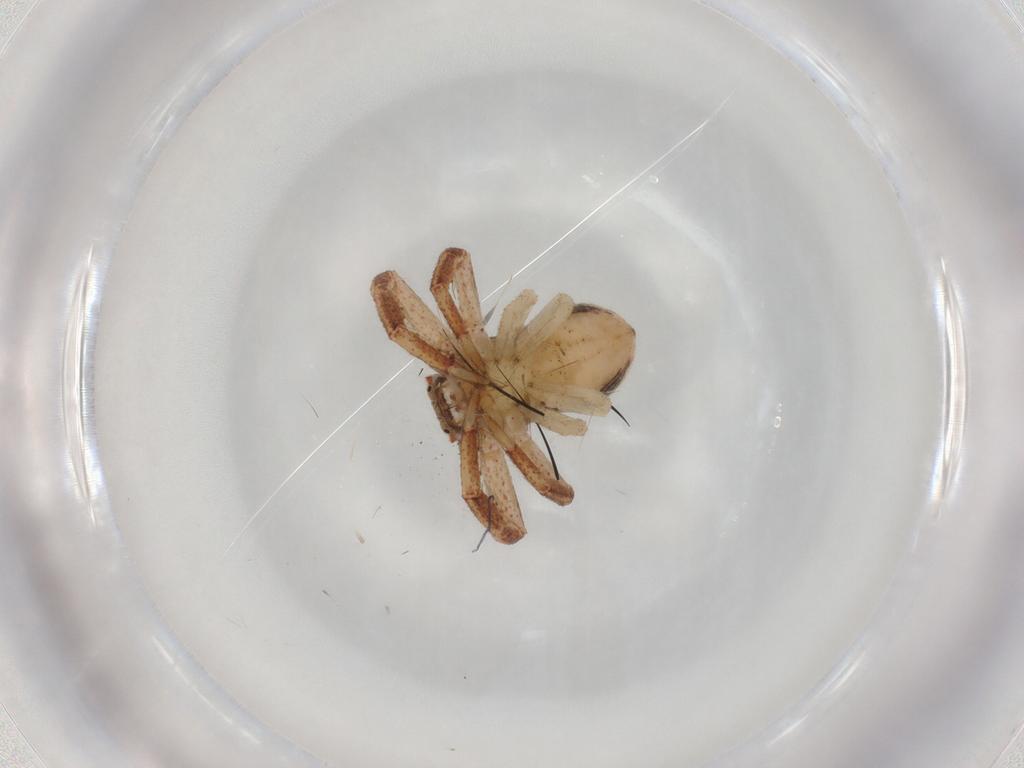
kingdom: Animalia
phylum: Arthropoda
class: Arachnida
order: Araneae
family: Thomisidae
